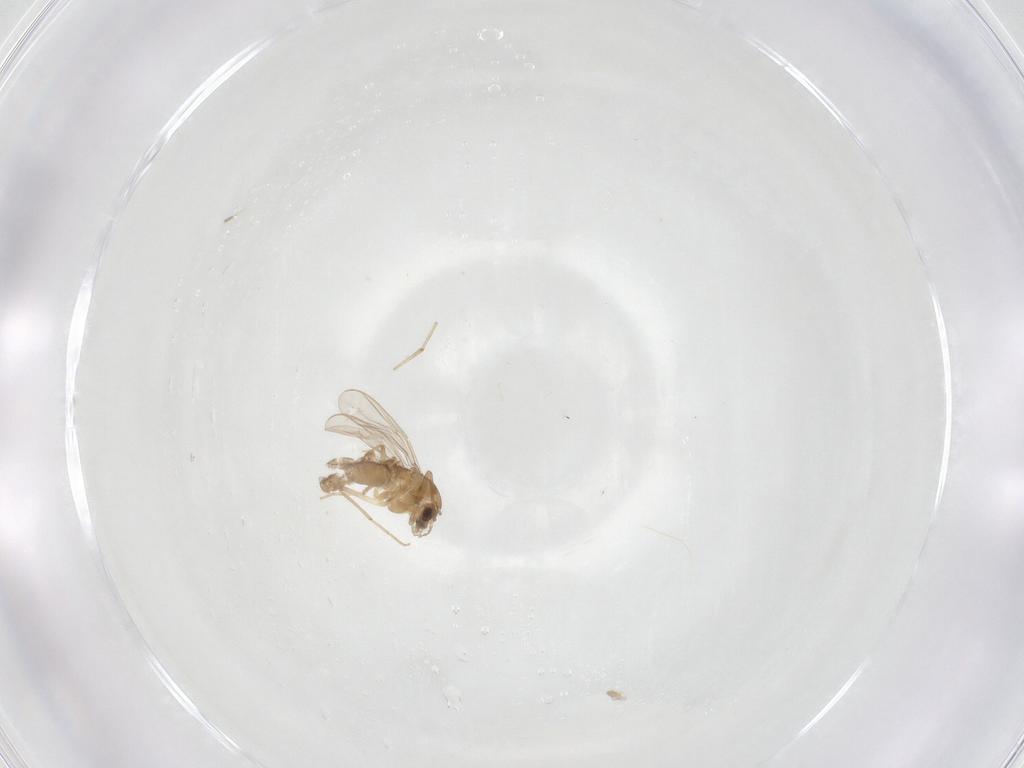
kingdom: Animalia
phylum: Arthropoda
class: Insecta
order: Diptera
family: Chironomidae
